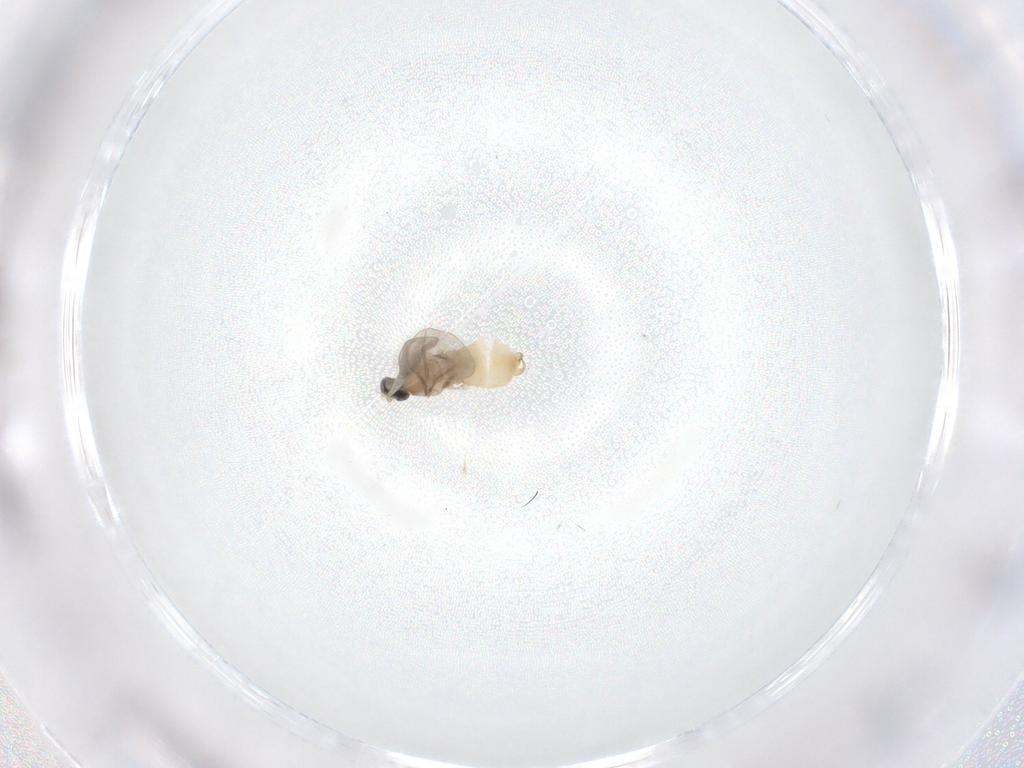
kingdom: Animalia
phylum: Arthropoda
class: Insecta
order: Diptera
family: Cecidomyiidae
